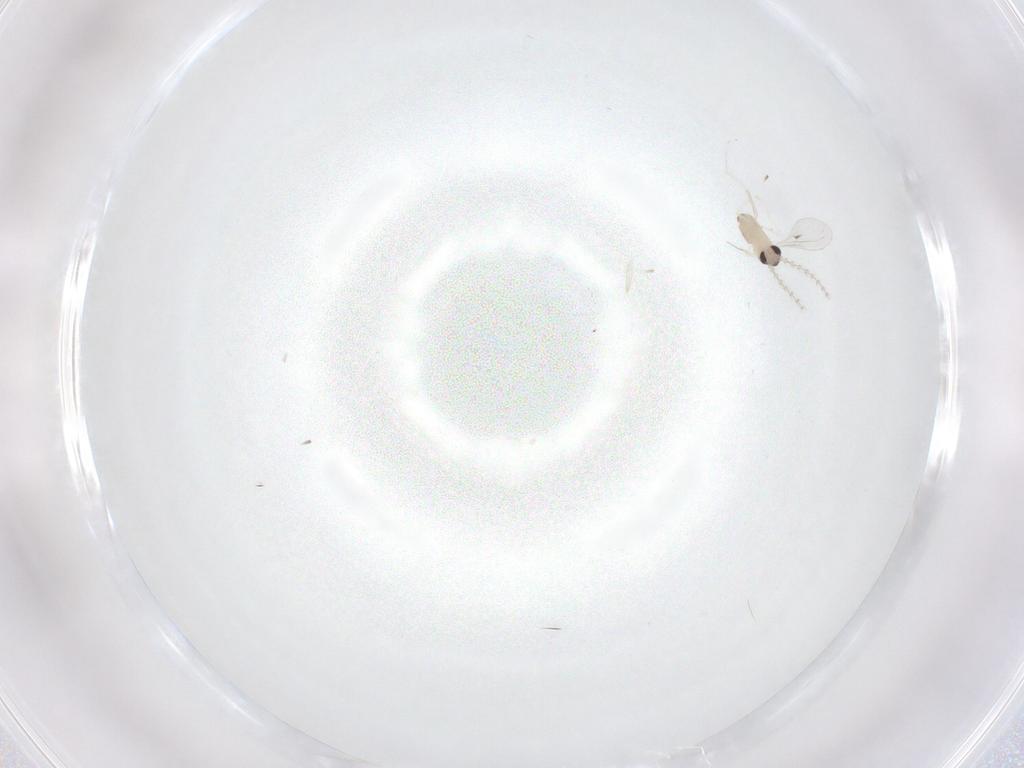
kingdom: Animalia
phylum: Arthropoda
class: Insecta
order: Diptera
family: Cecidomyiidae
